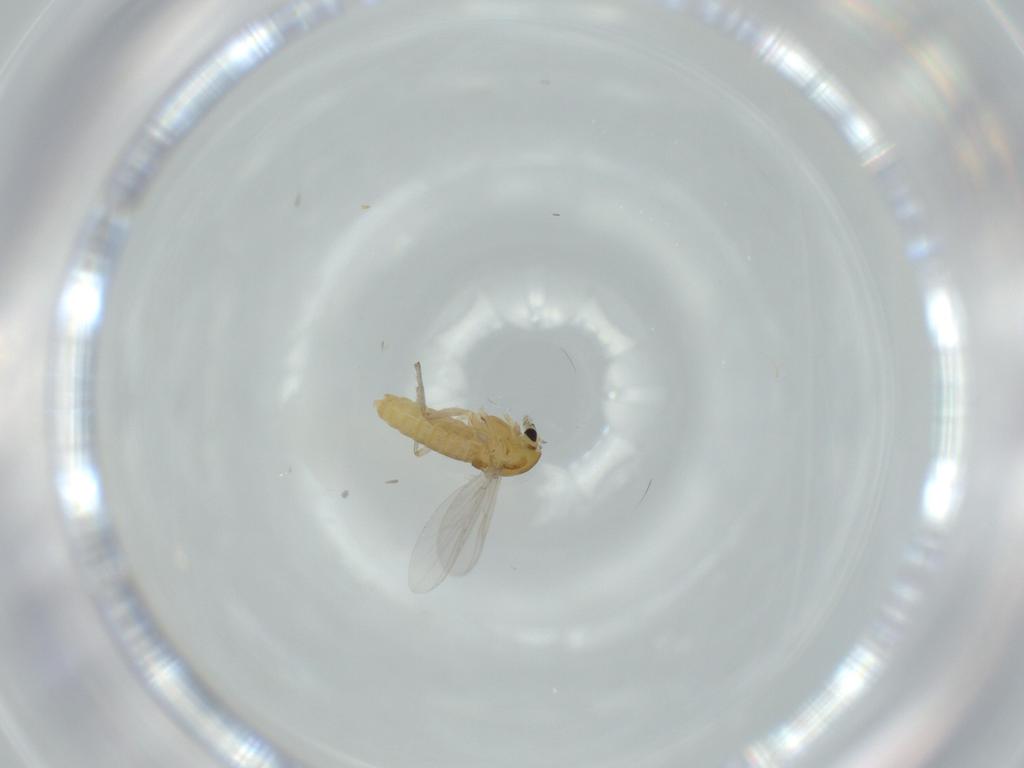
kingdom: Animalia
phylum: Arthropoda
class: Insecta
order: Diptera
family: Chironomidae
